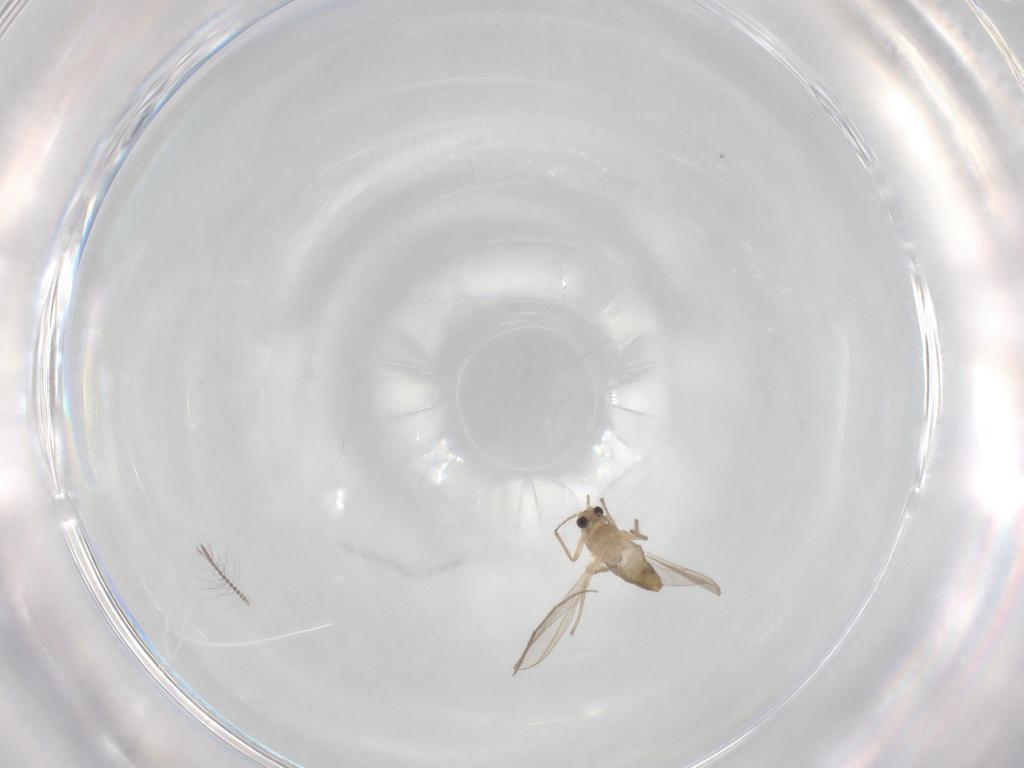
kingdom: Animalia
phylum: Arthropoda
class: Insecta
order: Diptera
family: Chironomidae
